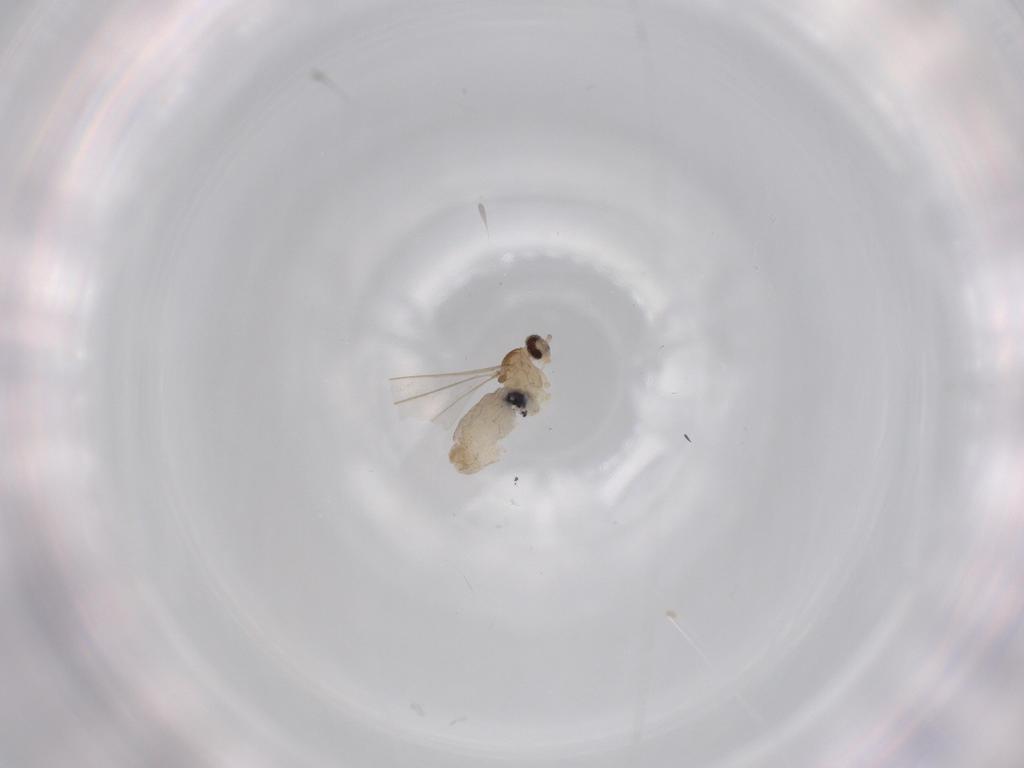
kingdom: Animalia
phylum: Arthropoda
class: Insecta
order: Diptera
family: Cecidomyiidae
